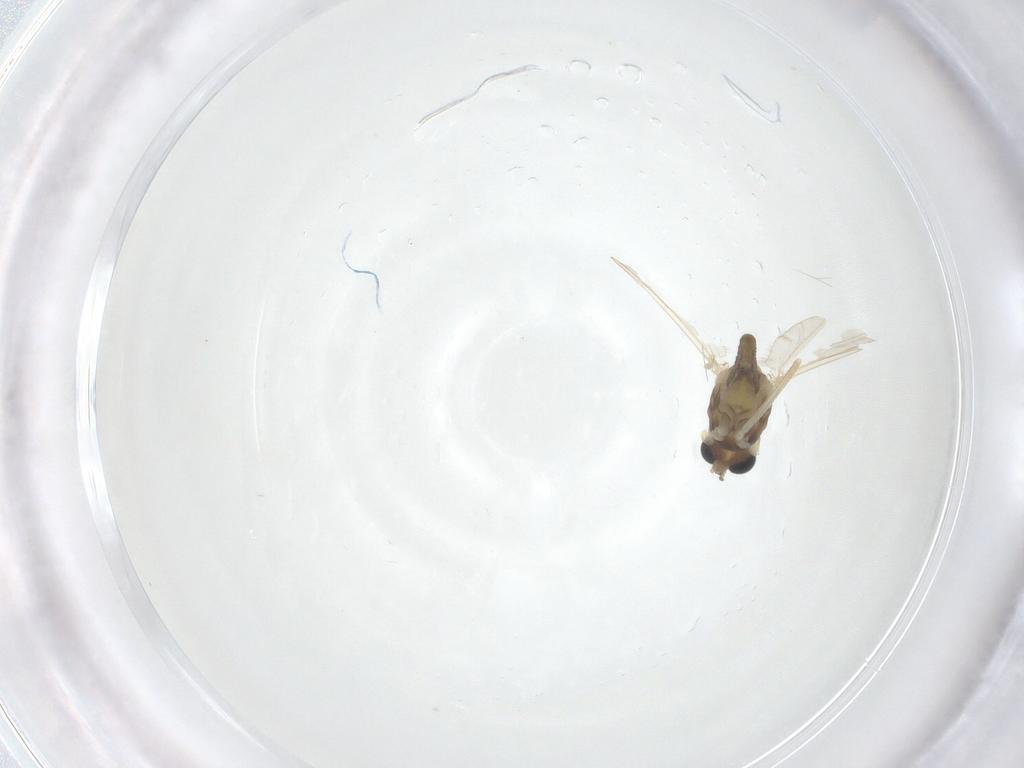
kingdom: Animalia
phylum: Arthropoda
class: Insecta
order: Diptera
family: Chironomidae
